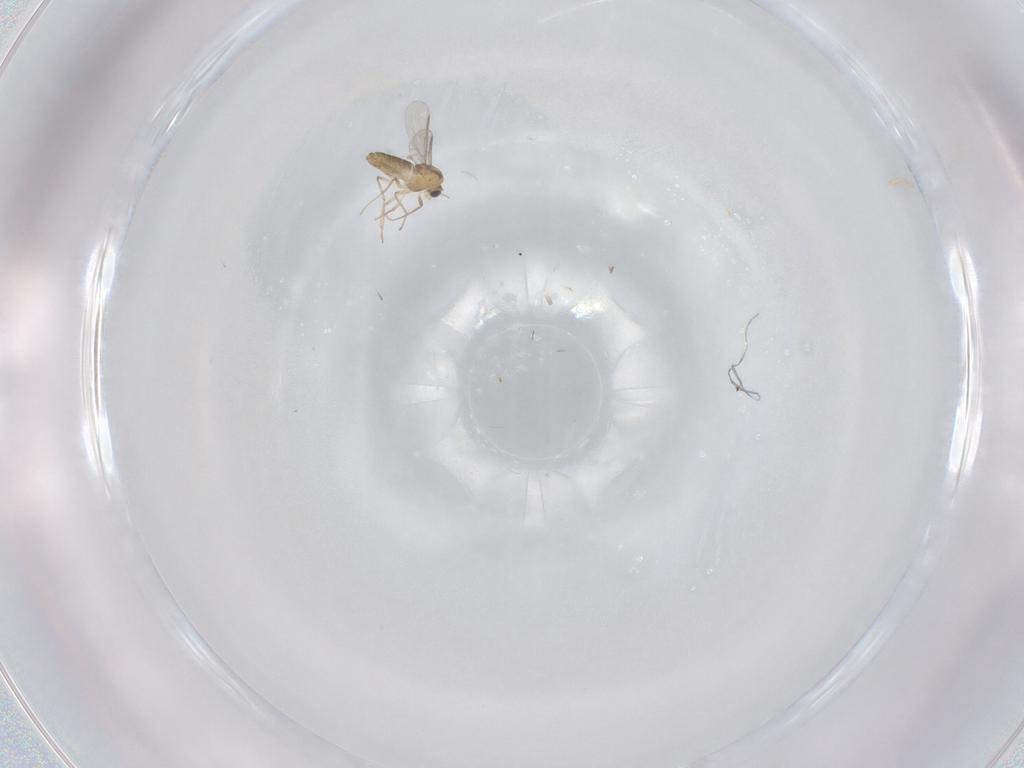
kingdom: Animalia
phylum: Arthropoda
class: Insecta
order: Diptera
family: Chironomidae
